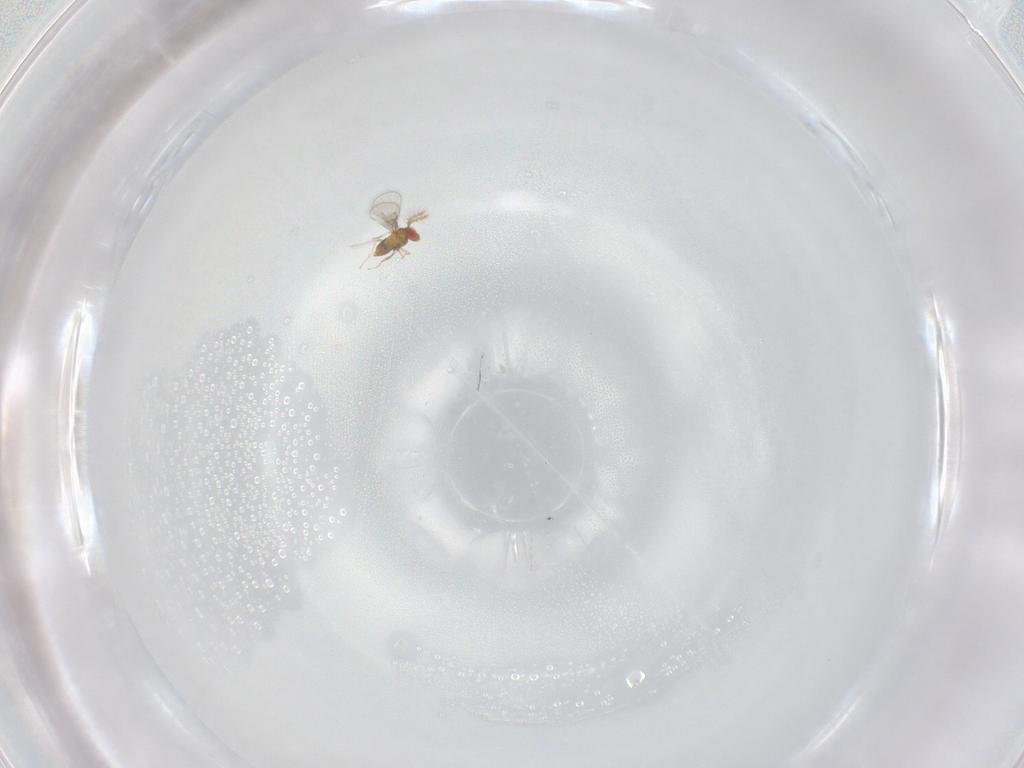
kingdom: Animalia
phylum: Arthropoda
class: Insecta
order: Hymenoptera
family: Trichogrammatidae
